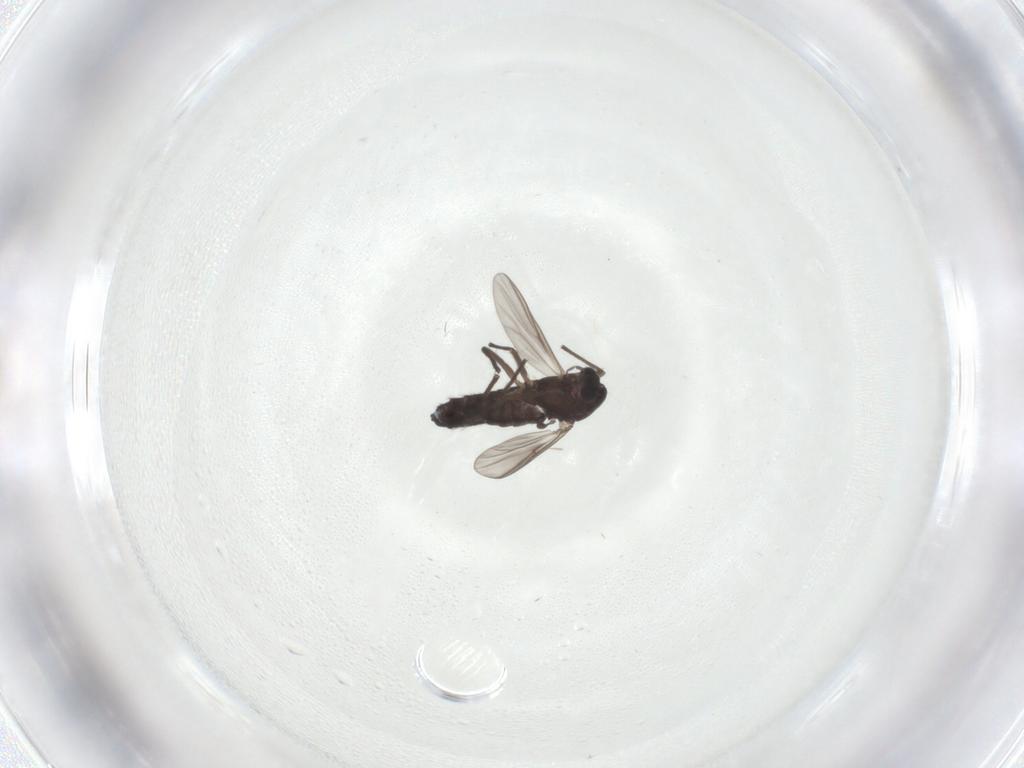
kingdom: Animalia
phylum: Arthropoda
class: Insecta
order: Diptera
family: Chironomidae
